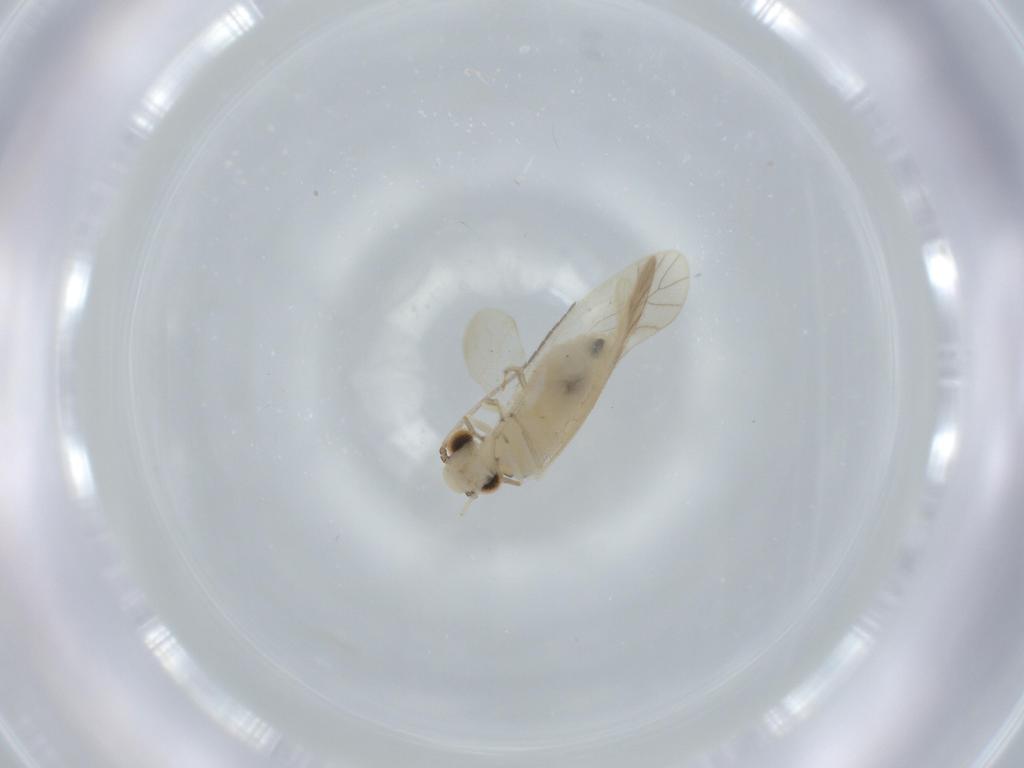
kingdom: Animalia
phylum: Arthropoda
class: Insecta
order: Psocodea
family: Caeciliusidae
